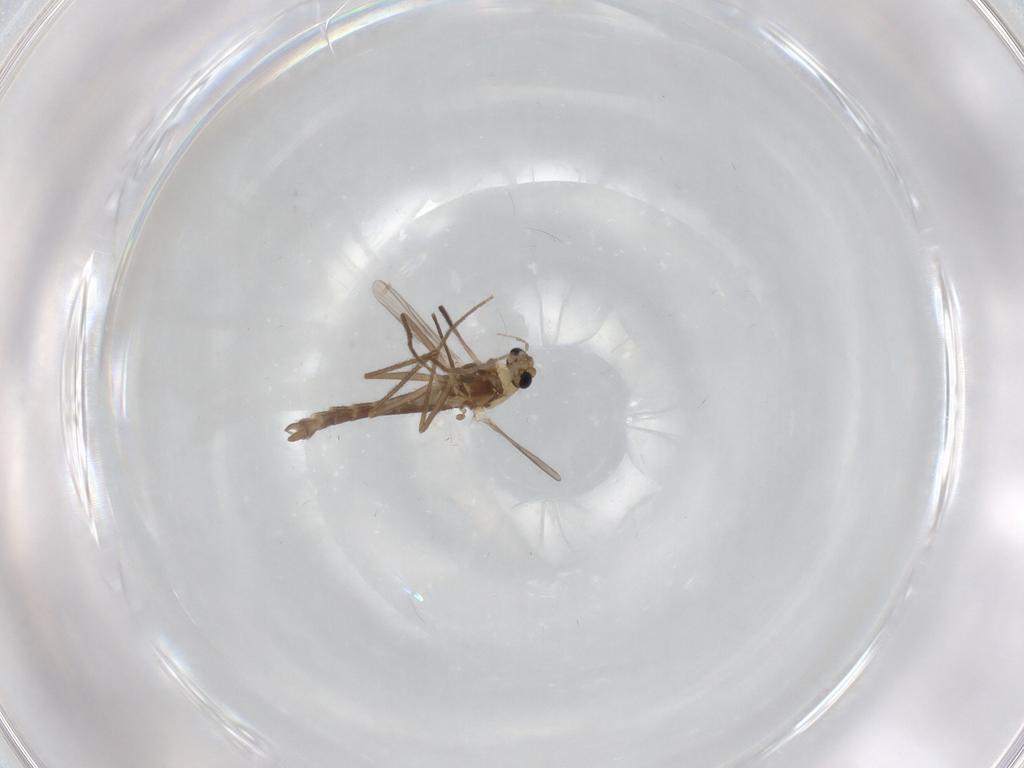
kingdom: Animalia
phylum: Arthropoda
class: Insecta
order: Diptera
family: Chironomidae
